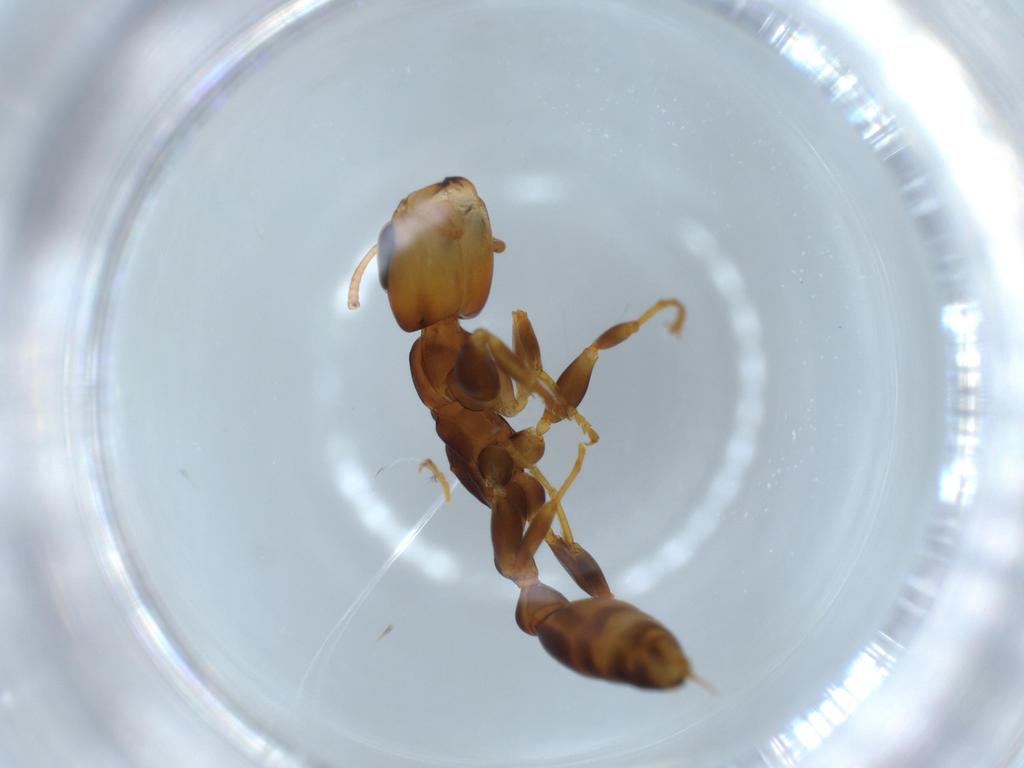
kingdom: Animalia
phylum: Arthropoda
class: Insecta
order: Hymenoptera
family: Formicidae
